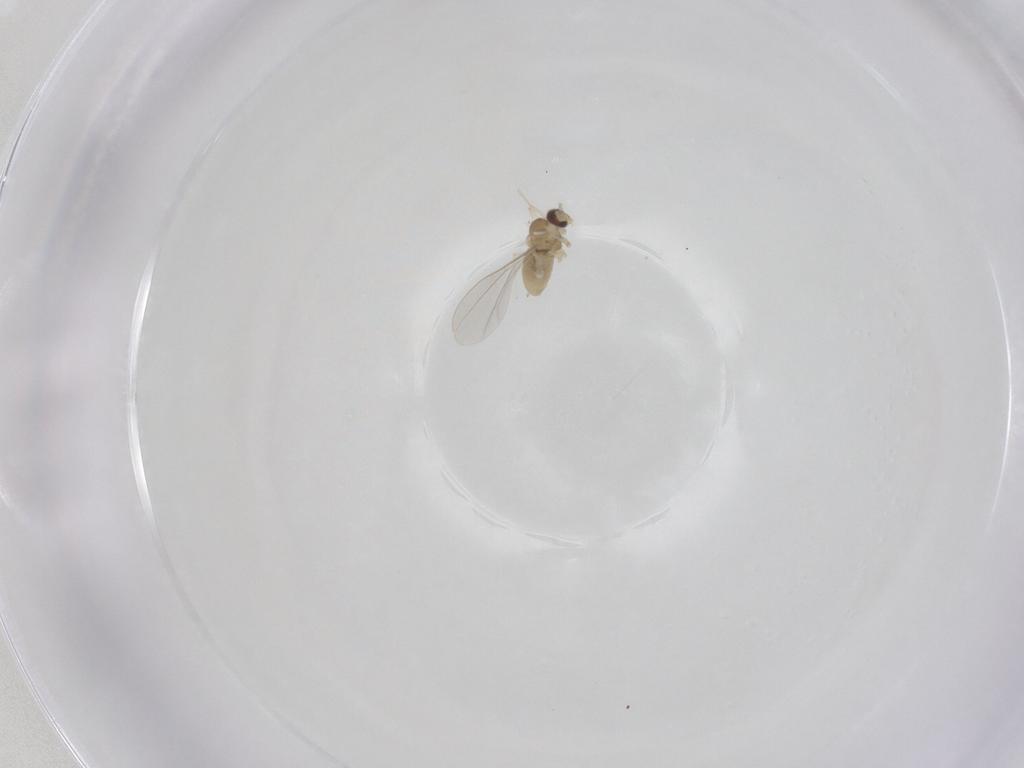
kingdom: Animalia
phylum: Arthropoda
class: Insecta
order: Diptera
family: Cecidomyiidae
